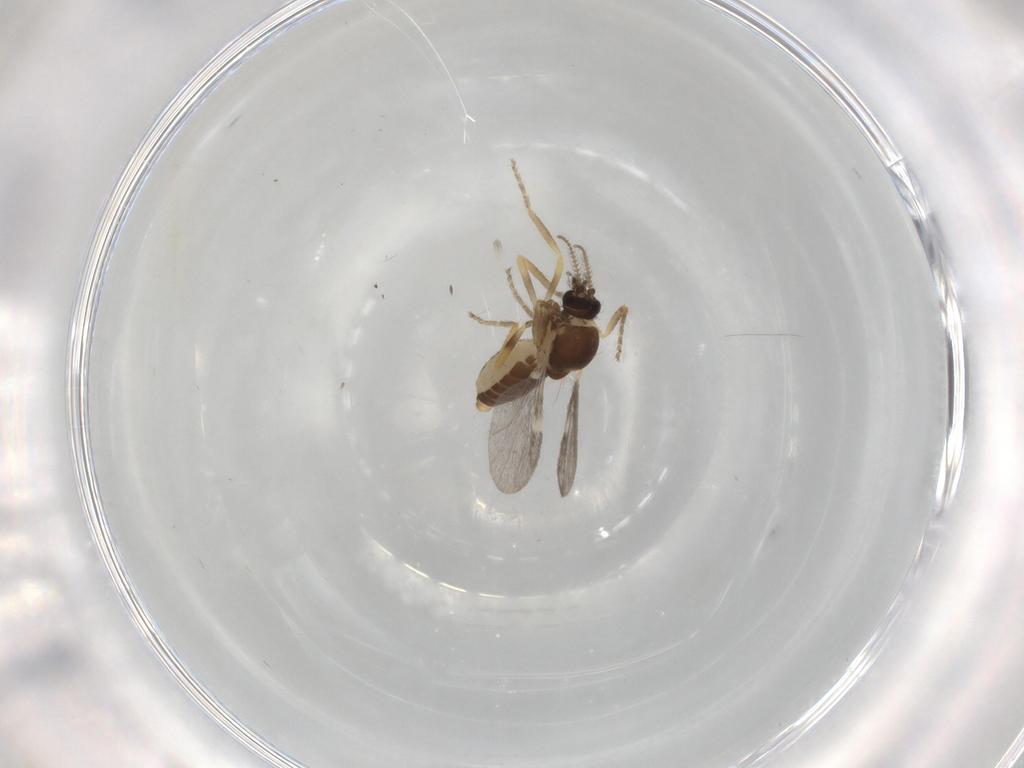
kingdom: Animalia
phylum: Arthropoda
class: Insecta
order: Diptera
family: Ceratopogonidae
